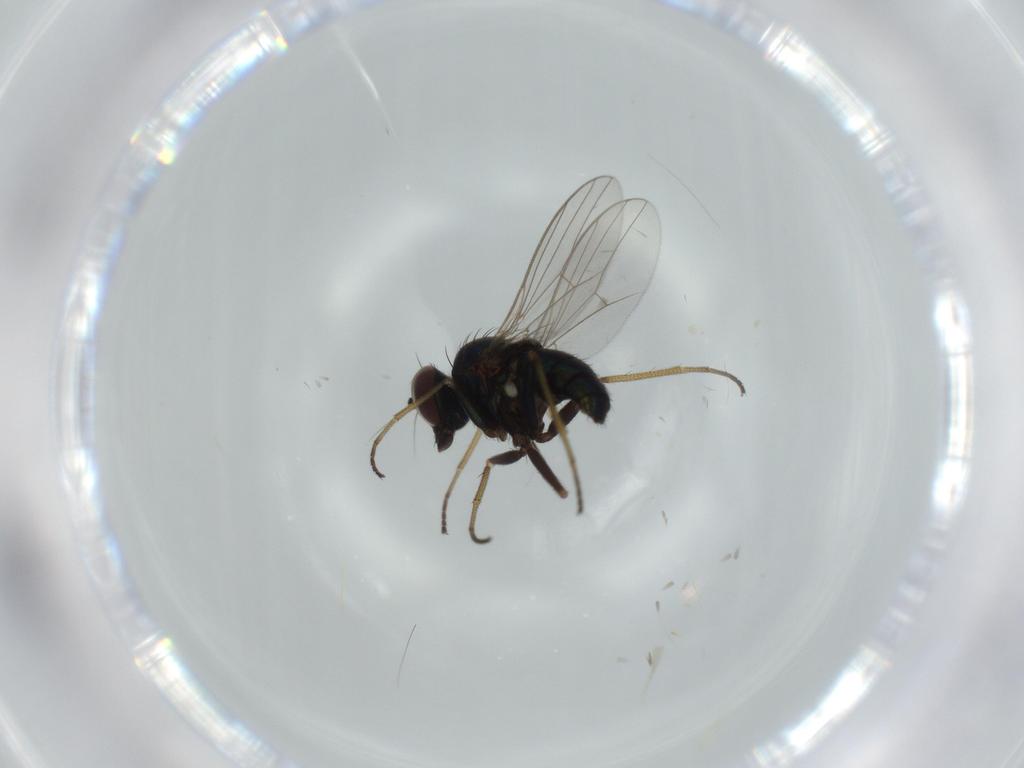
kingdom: Animalia
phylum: Arthropoda
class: Insecta
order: Diptera
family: Dolichopodidae
